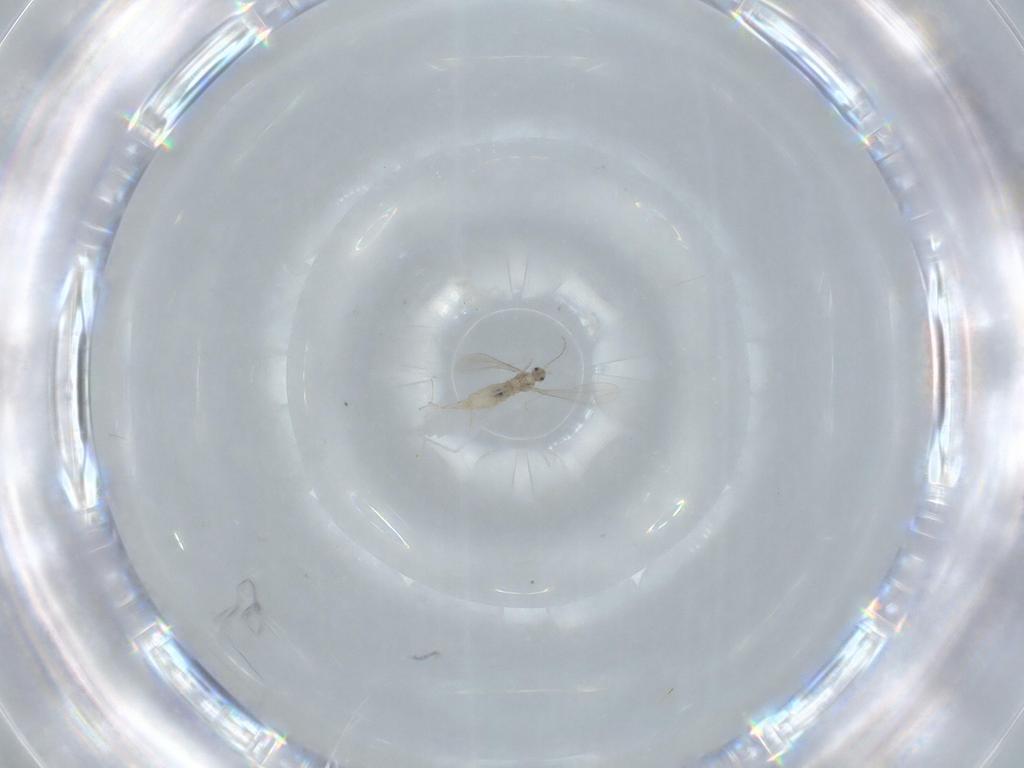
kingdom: Animalia
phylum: Arthropoda
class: Insecta
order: Diptera
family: Cecidomyiidae
